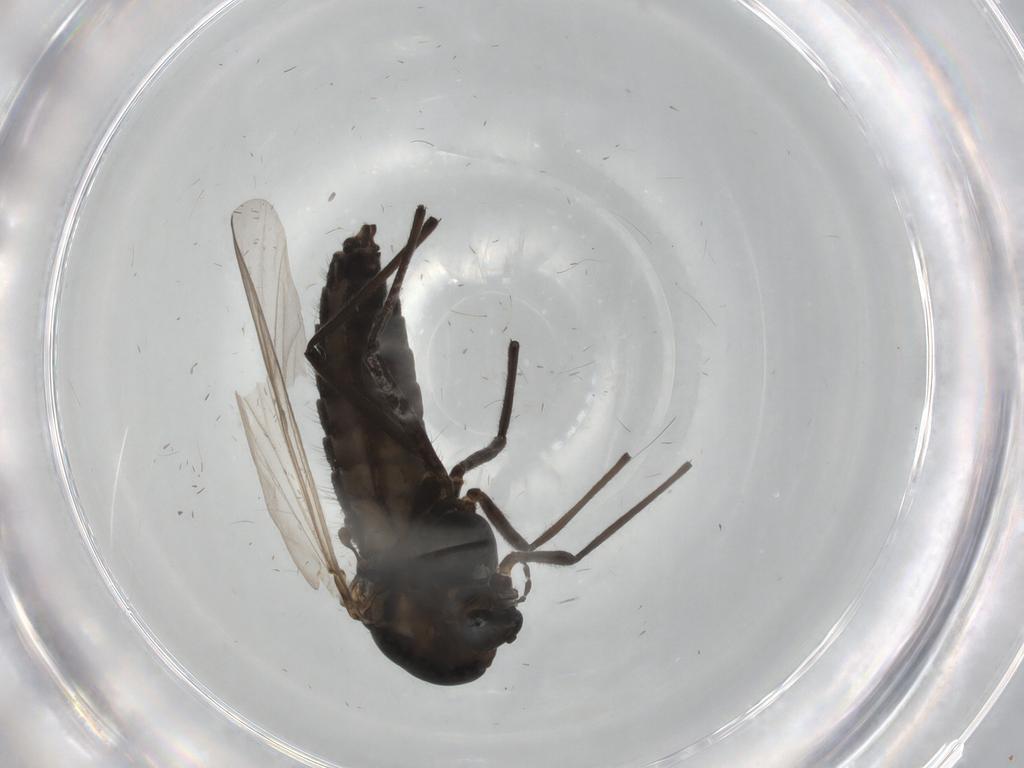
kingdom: Animalia
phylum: Arthropoda
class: Insecta
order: Diptera
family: Chironomidae
